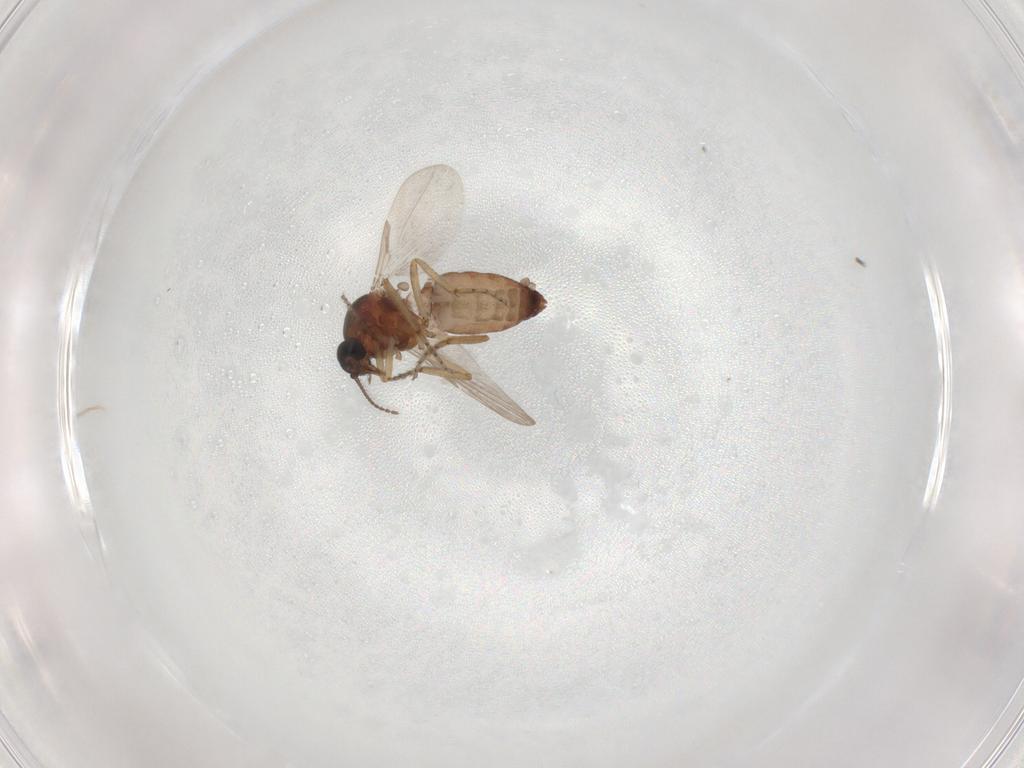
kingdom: Animalia
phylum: Arthropoda
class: Insecta
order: Diptera
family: Ceratopogonidae
